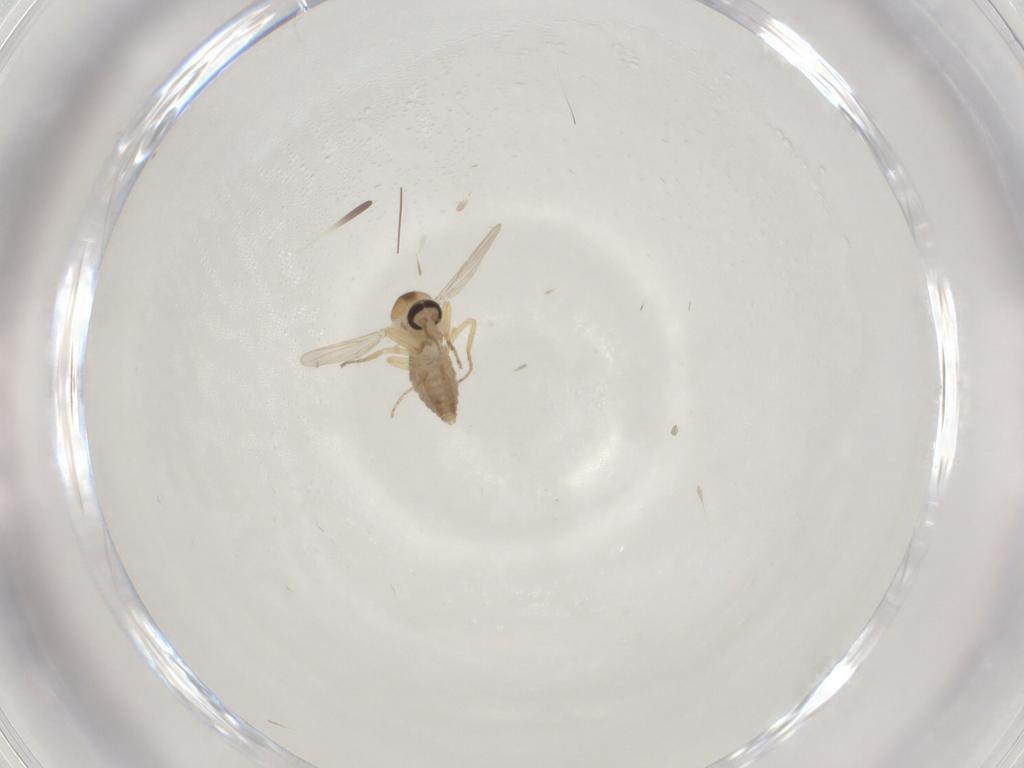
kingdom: Animalia
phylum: Arthropoda
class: Insecta
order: Diptera
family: Ceratopogonidae
